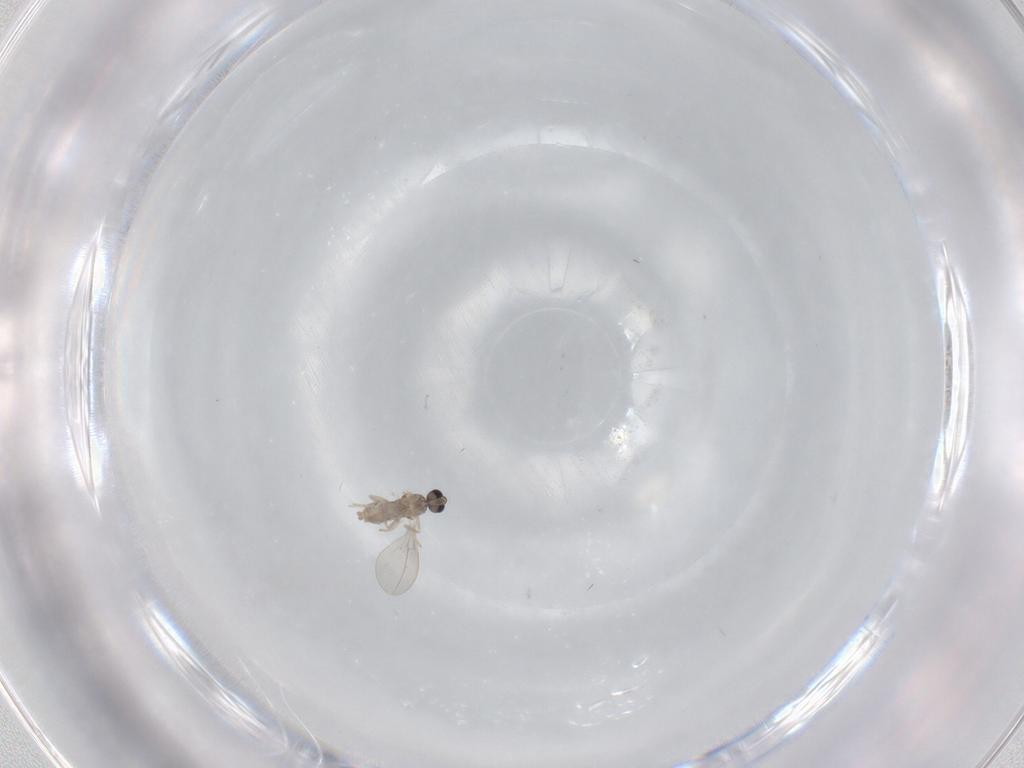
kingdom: Animalia
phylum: Arthropoda
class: Insecta
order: Diptera
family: Cecidomyiidae
